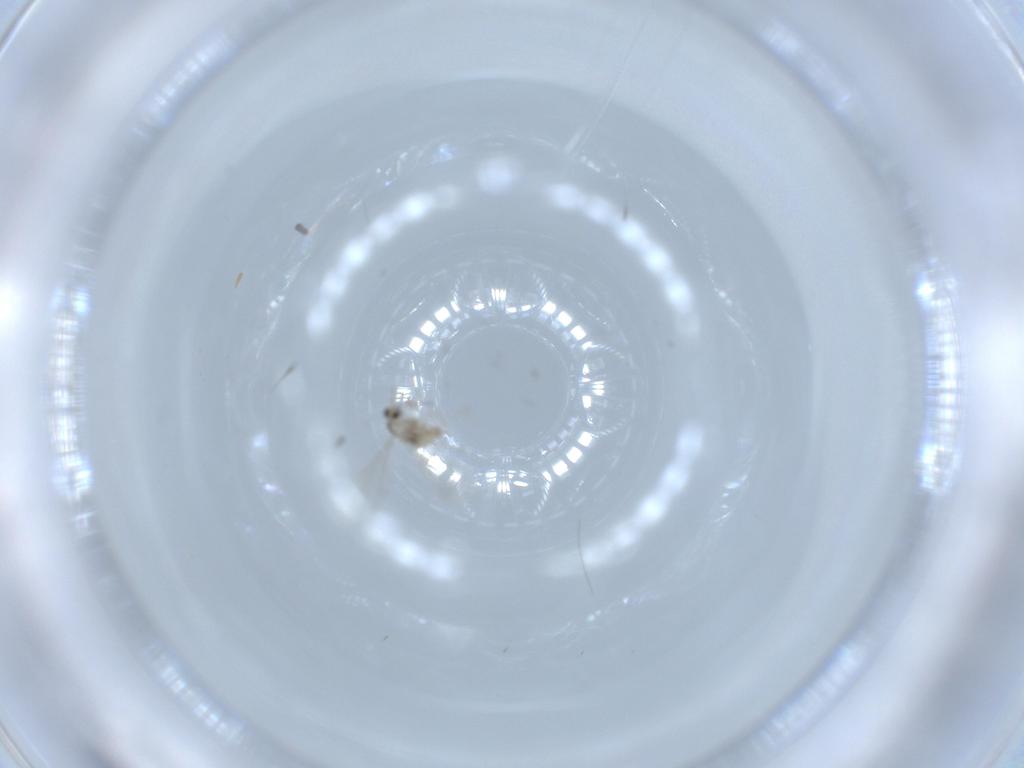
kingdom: Animalia
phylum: Arthropoda
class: Insecta
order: Diptera
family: Cecidomyiidae
